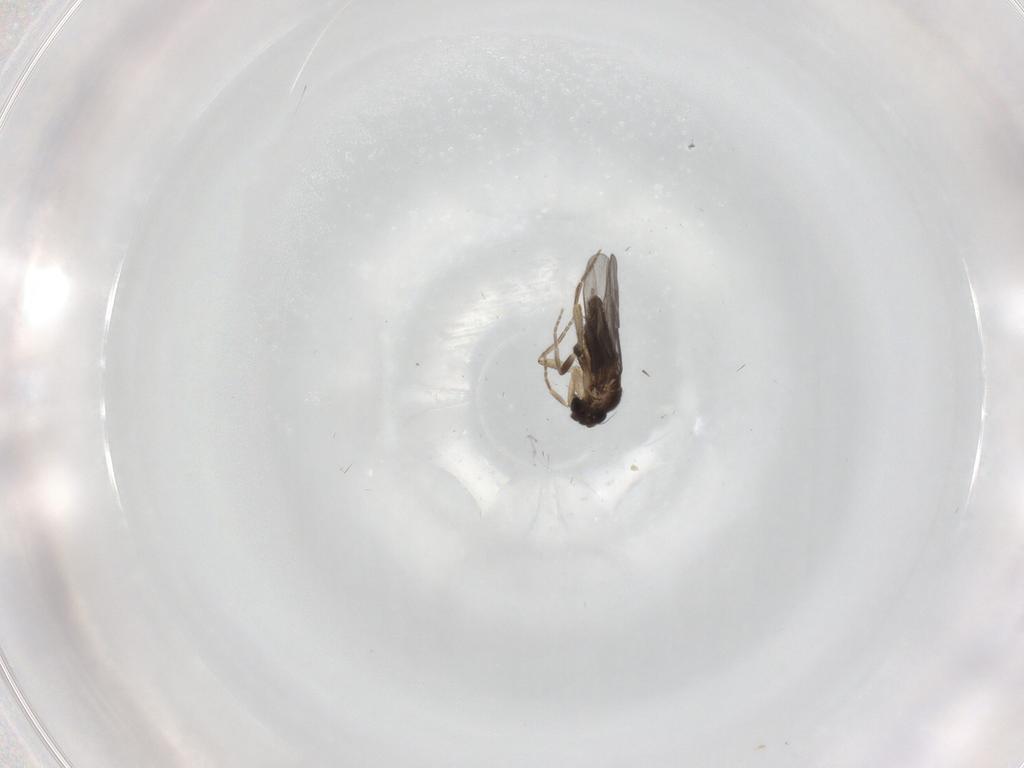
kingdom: Animalia
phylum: Arthropoda
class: Insecta
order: Diptera
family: Phoridae
